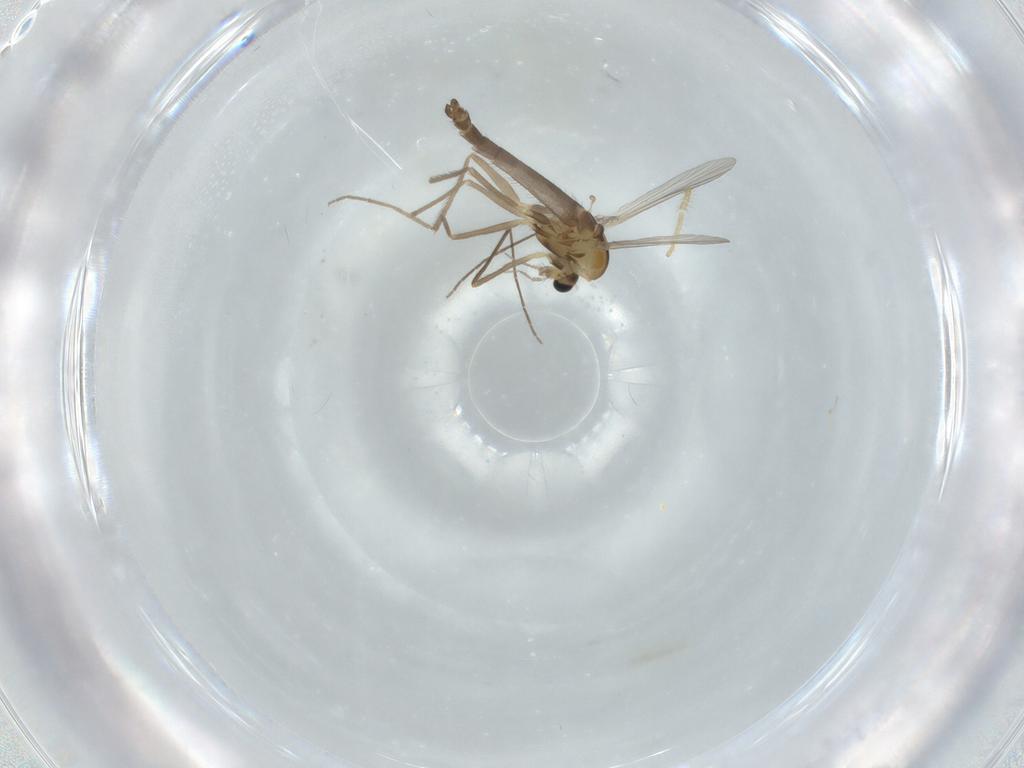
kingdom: Animalia
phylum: Arthropoda
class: Insecta
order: Diptera
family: Chironomidae
